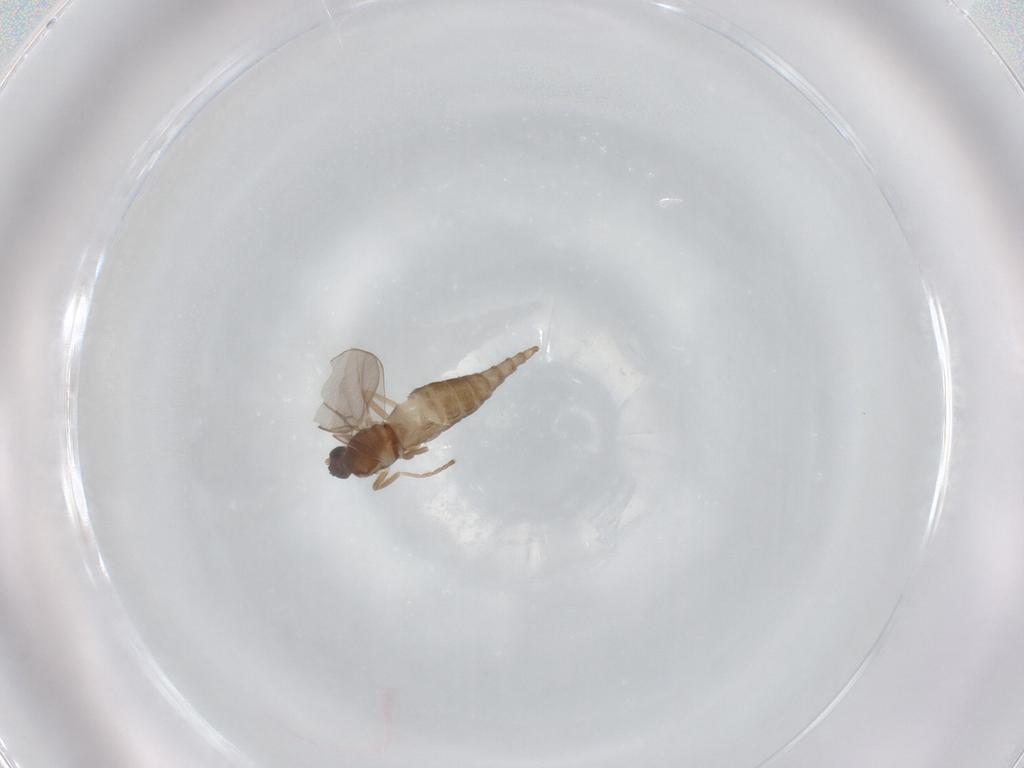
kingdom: Animalia
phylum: Arthropoda
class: Insecta
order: Diptera
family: Cecidomyiidae
